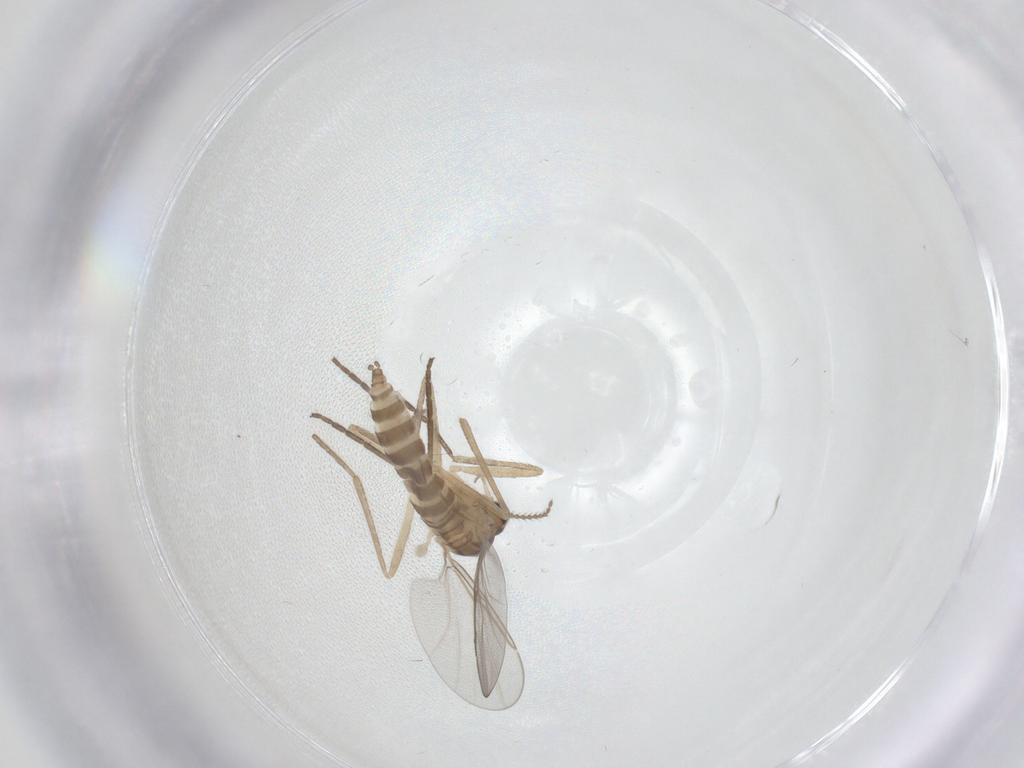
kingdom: Animalia
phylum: Arthropoda
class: Insecta
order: Diptera
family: Cecidomyiidae
